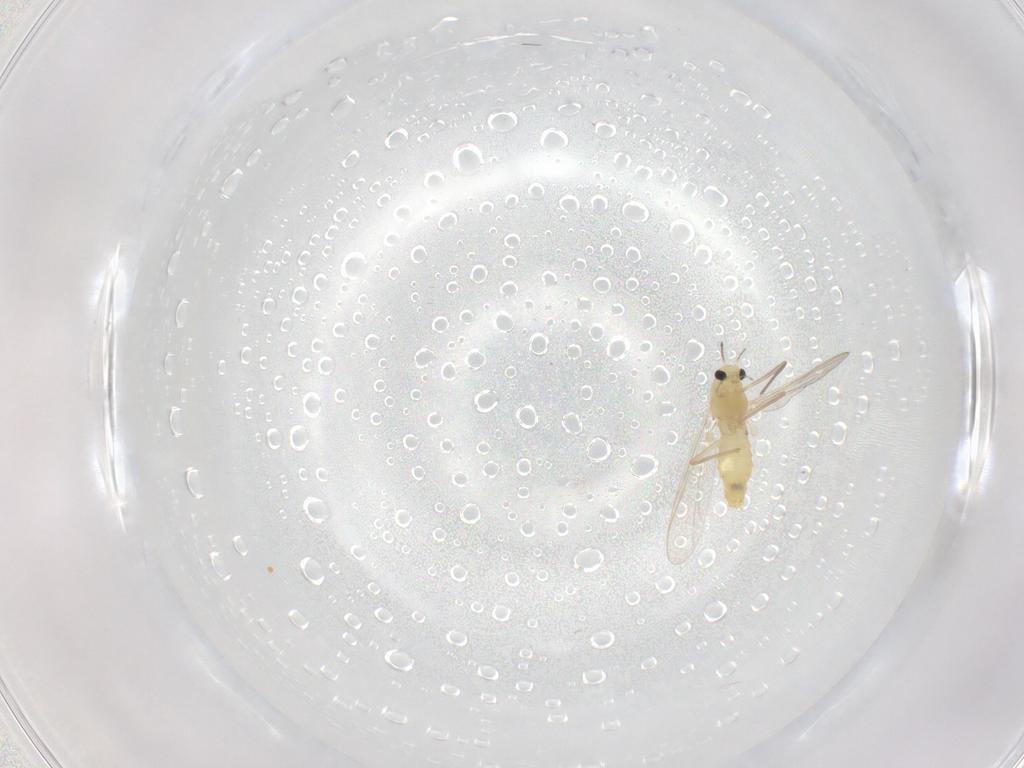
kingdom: Animalia
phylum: Arthropoda
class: Insecta
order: Diptera
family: Chironomidae
